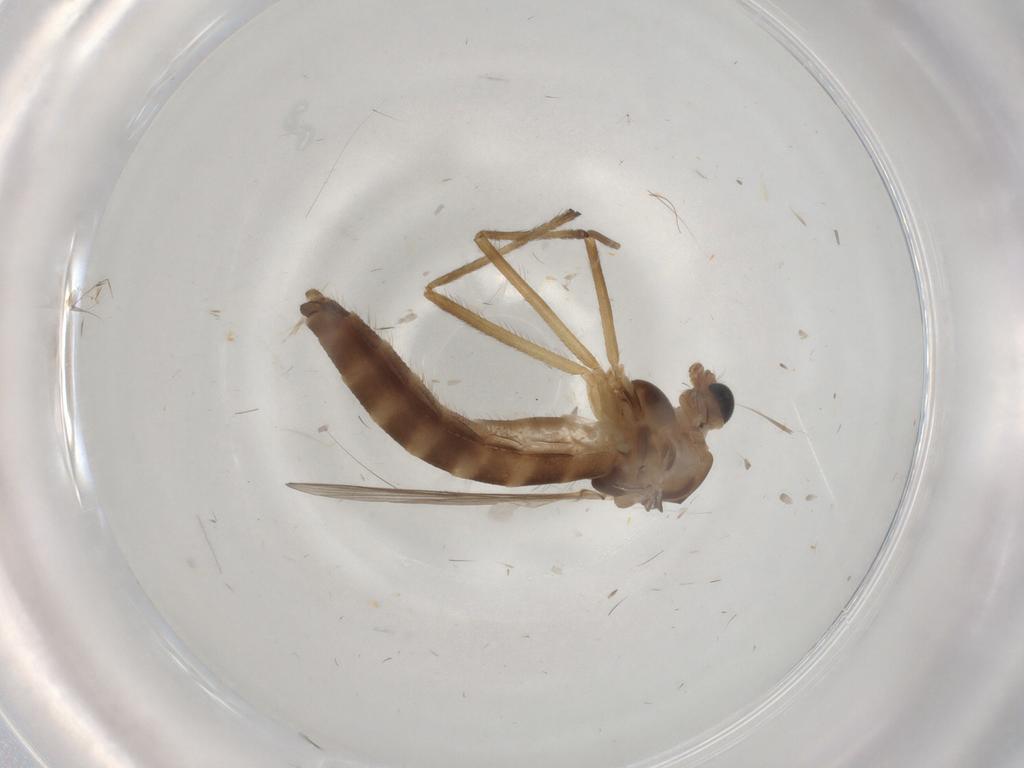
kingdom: Animalia
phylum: Arthropoda
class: Insecta
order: Diptera
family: Chironomidae
